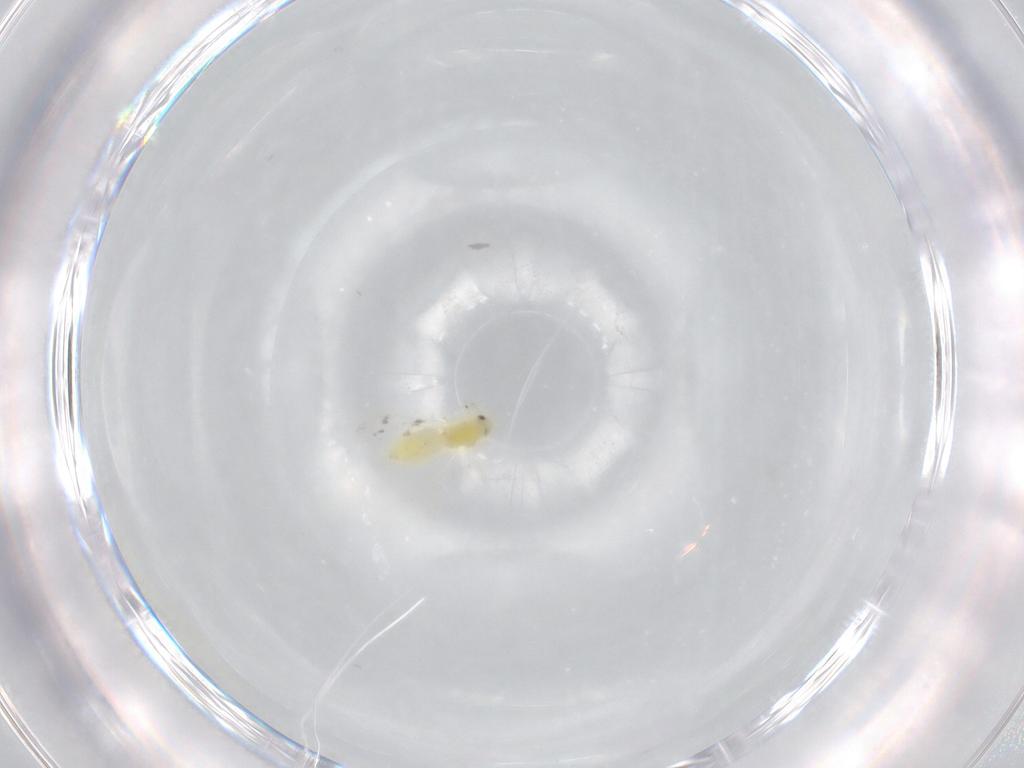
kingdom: Animalia
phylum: Arthropoda
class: Insecta
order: Hemiptera
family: Aleyrodidae
